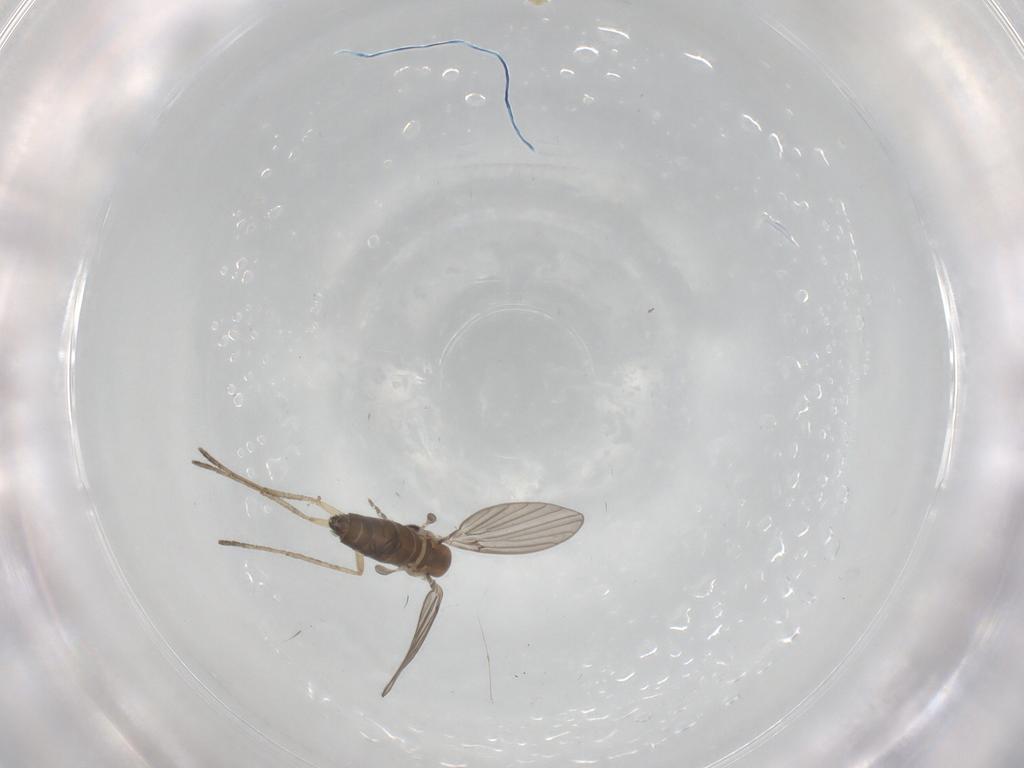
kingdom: Animalia
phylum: Arthropoda
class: Insecta
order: Diptera
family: Psychodidae
